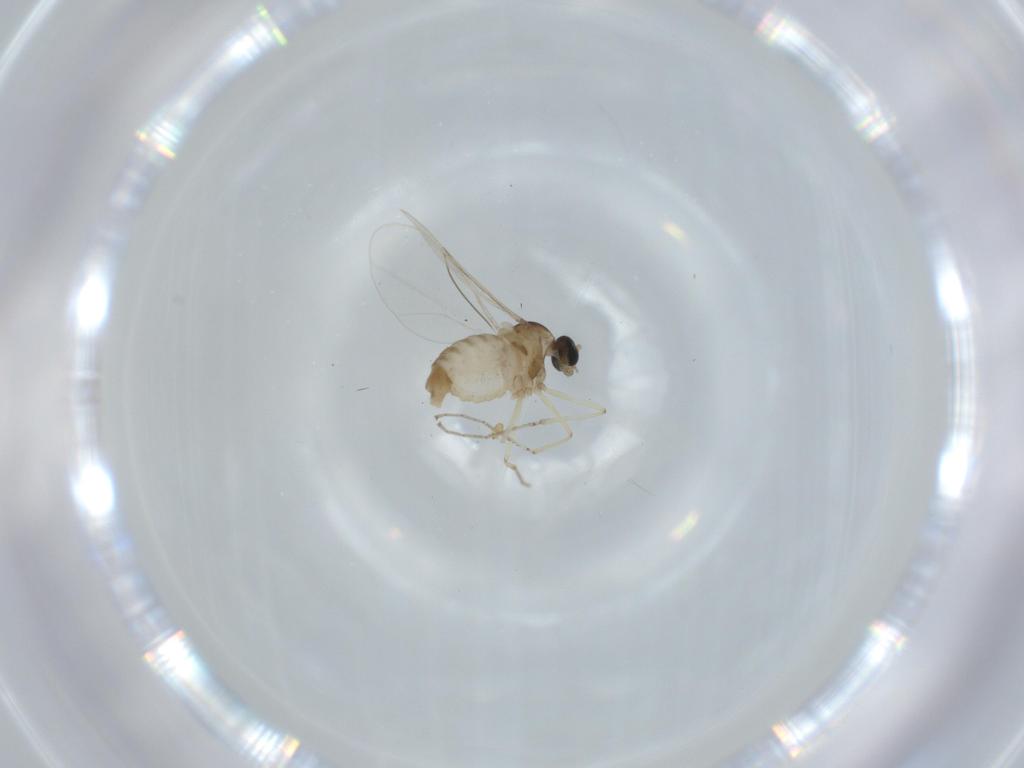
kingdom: Animalia
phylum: Arthropoda
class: Insecta
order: Diptera
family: Cecidomyiidae
